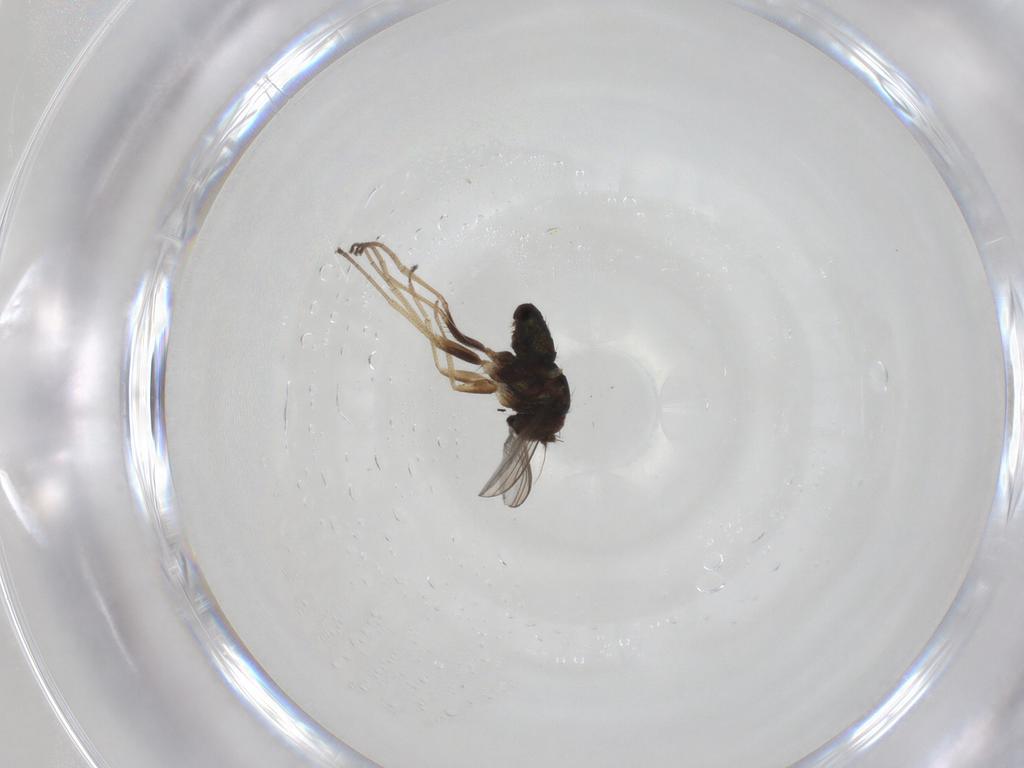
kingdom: Animalia
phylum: Arthropoda
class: Insecta
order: Diptera
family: Dolichopodidae
